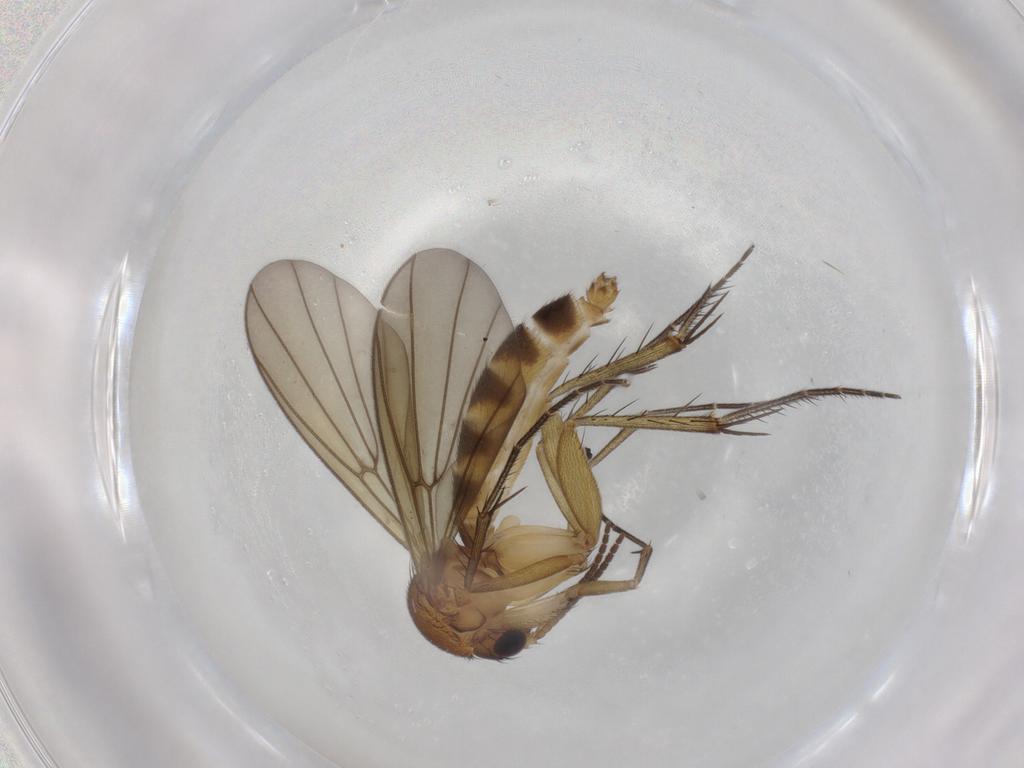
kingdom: Animalia
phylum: Arthropoda
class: Insecta
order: Diptera
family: Mycetophilidae
